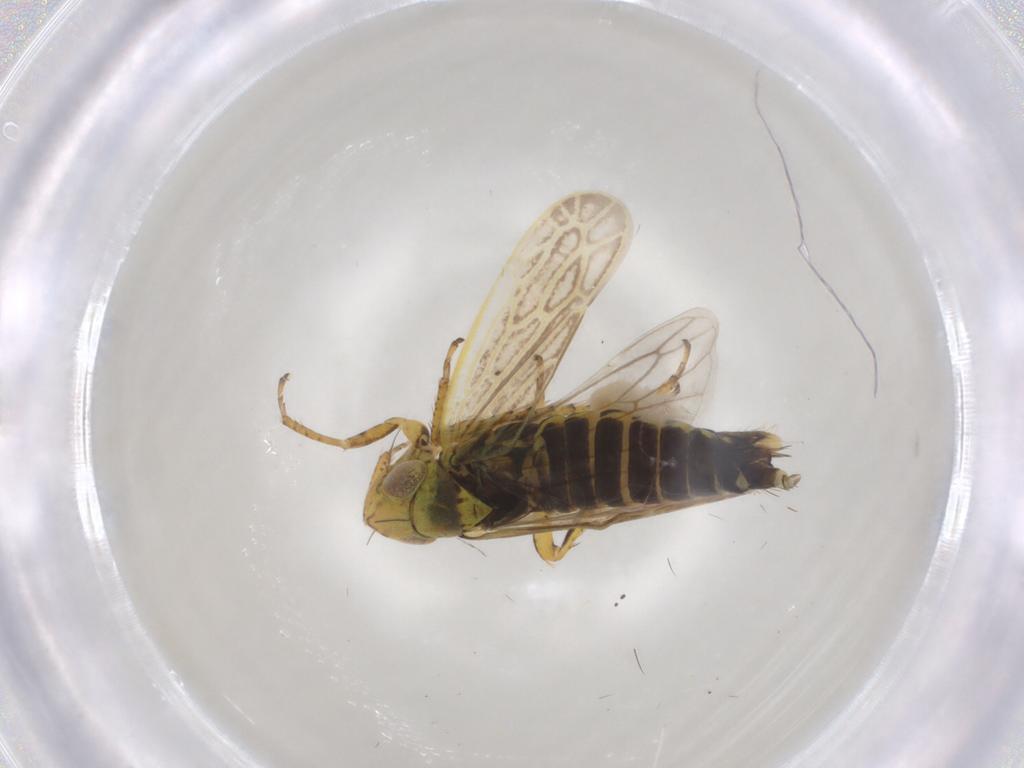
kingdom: Animalia
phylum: Arthropoda
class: Insecta
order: Hemiptera
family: Cicadellidae
